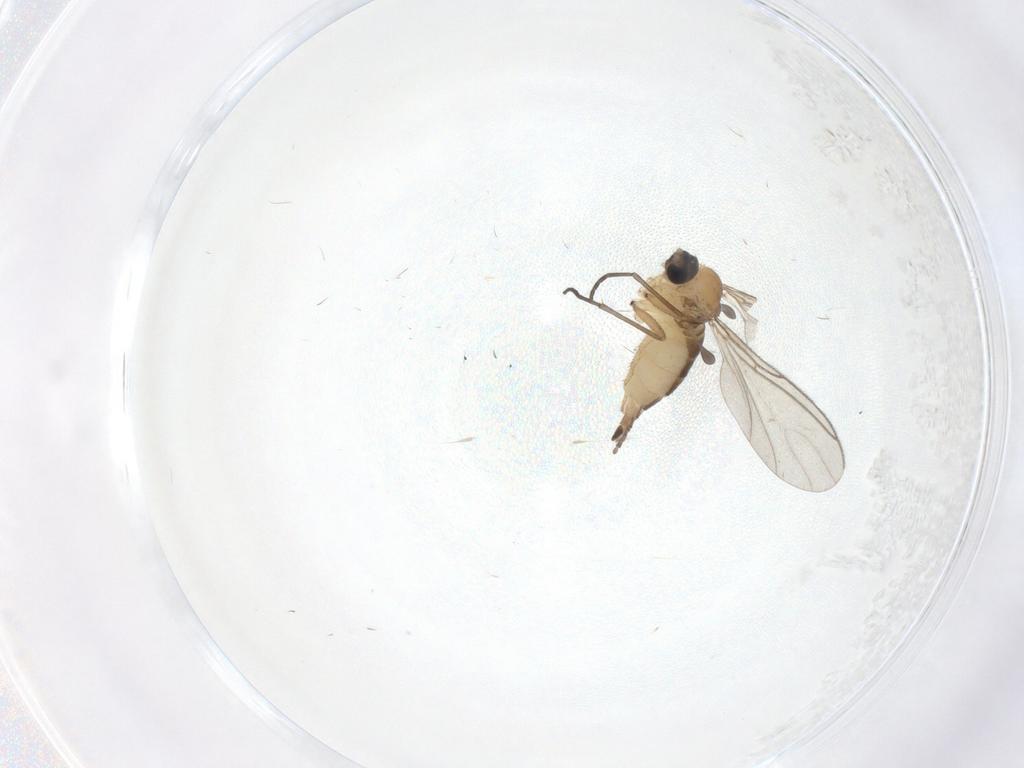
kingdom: Animalia
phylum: Arthropoda
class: Insecta
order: Diptera
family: Sciaridae
